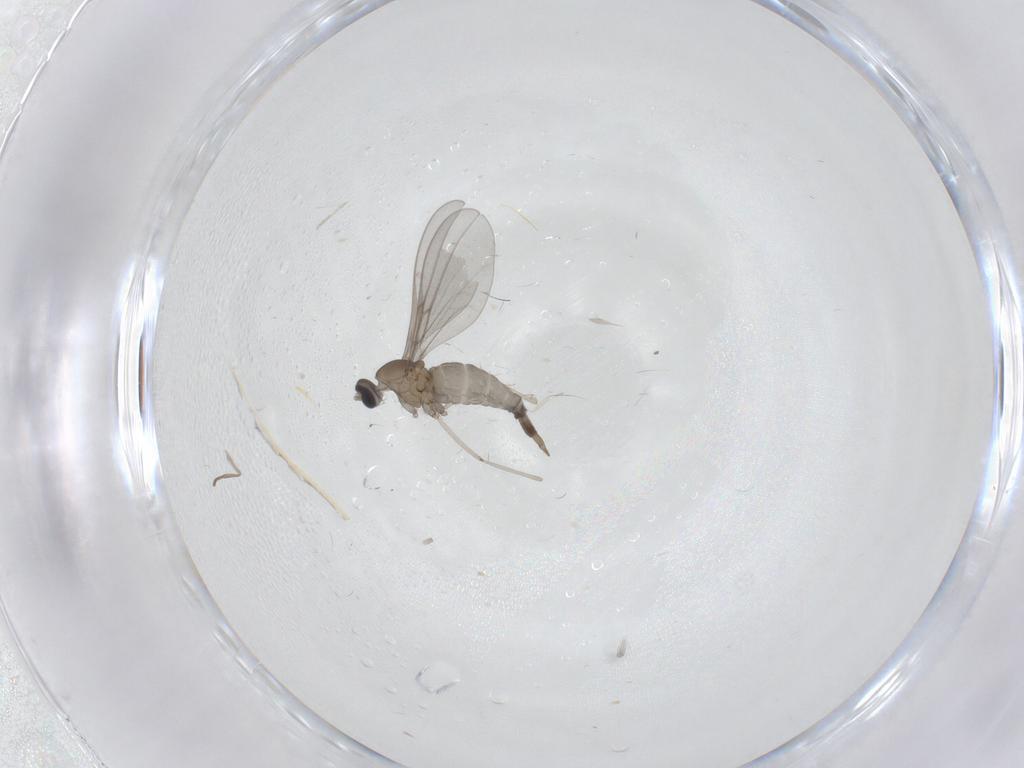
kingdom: Animalia
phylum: Arthropoda
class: Insecta
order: Diptera
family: Cecidomyiidae
